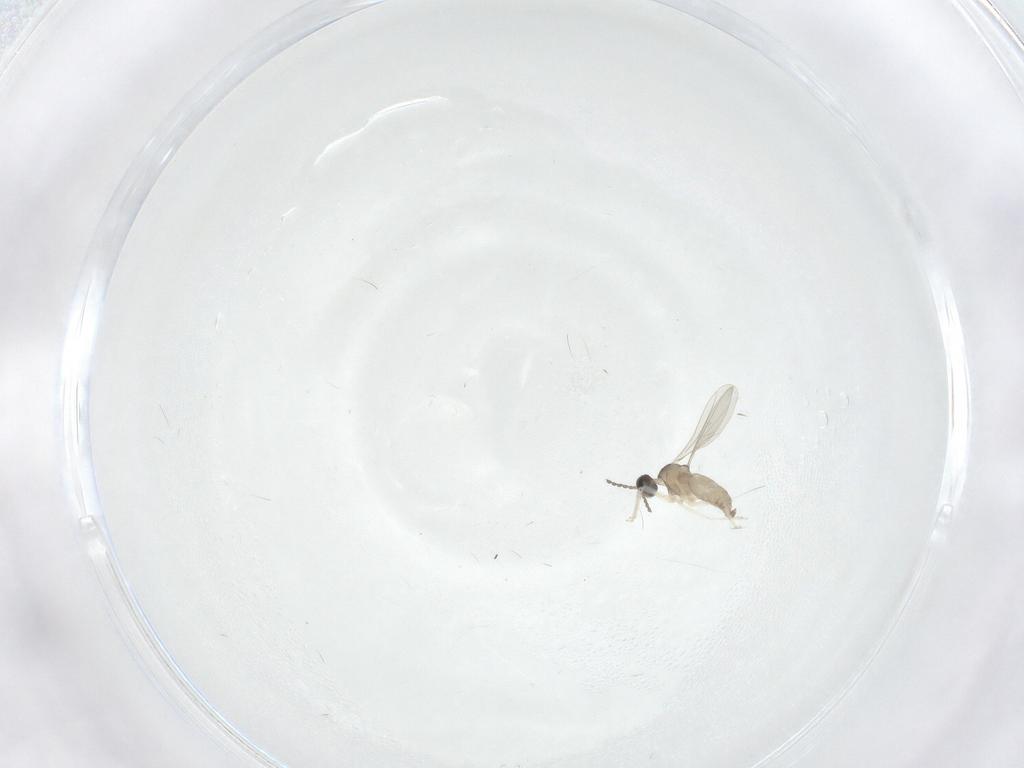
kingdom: Animalia
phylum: Arthropoda
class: Insecta
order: Diptera
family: Cecidomyiidae
